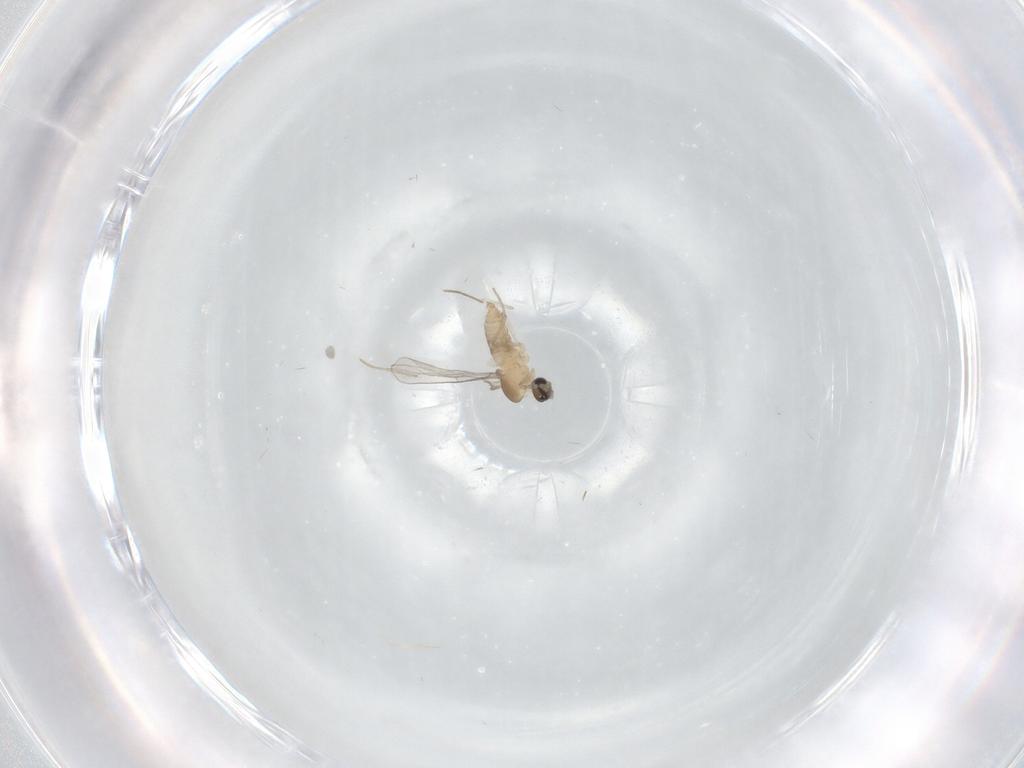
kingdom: Animalia
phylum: Arthropoda
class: Insecta
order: Diptera
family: Cecidomyiidae
